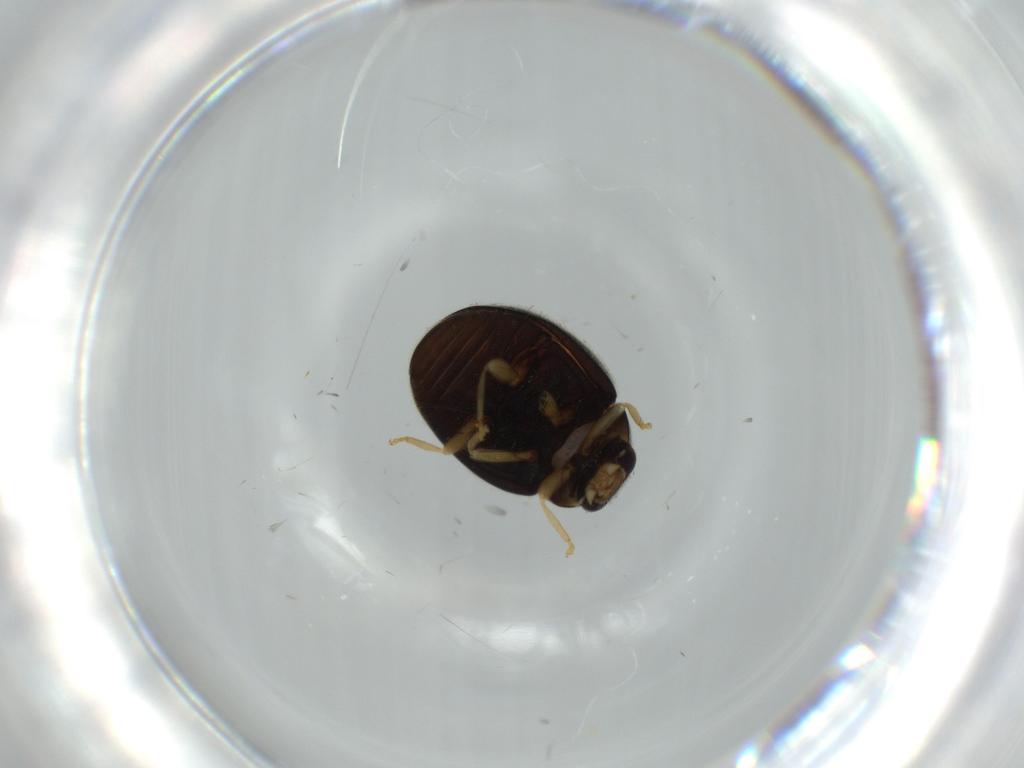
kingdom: Animalia
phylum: Arthropoda
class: Insecta
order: Coleoptera
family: Coccinellidae
